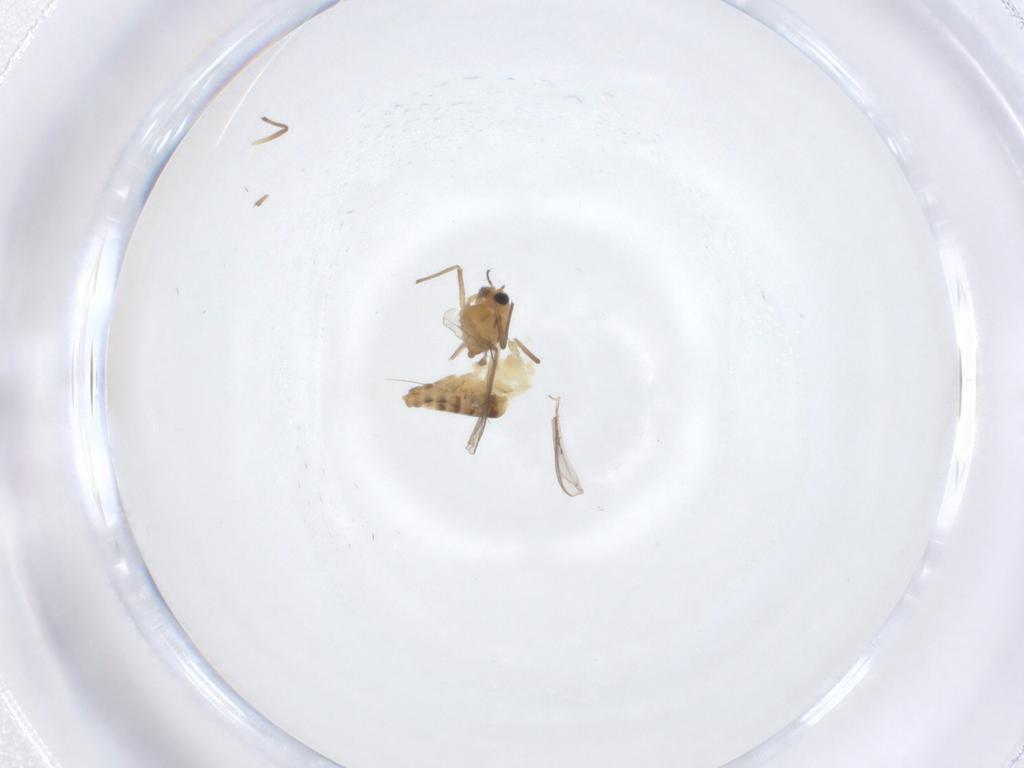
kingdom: Animalia
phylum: Arthropoda
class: Insecta
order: Diptera
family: Chironomidae
